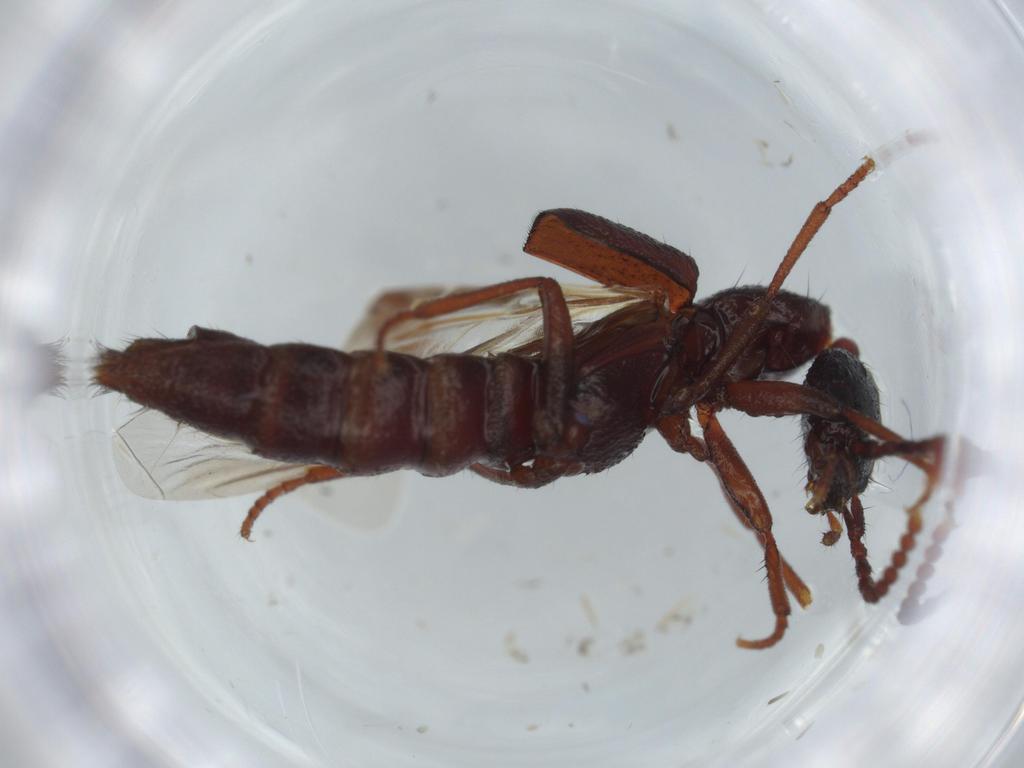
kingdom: Animalia
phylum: Arthropoda
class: Insecta
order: Coleoptera
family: Staphylinidae
